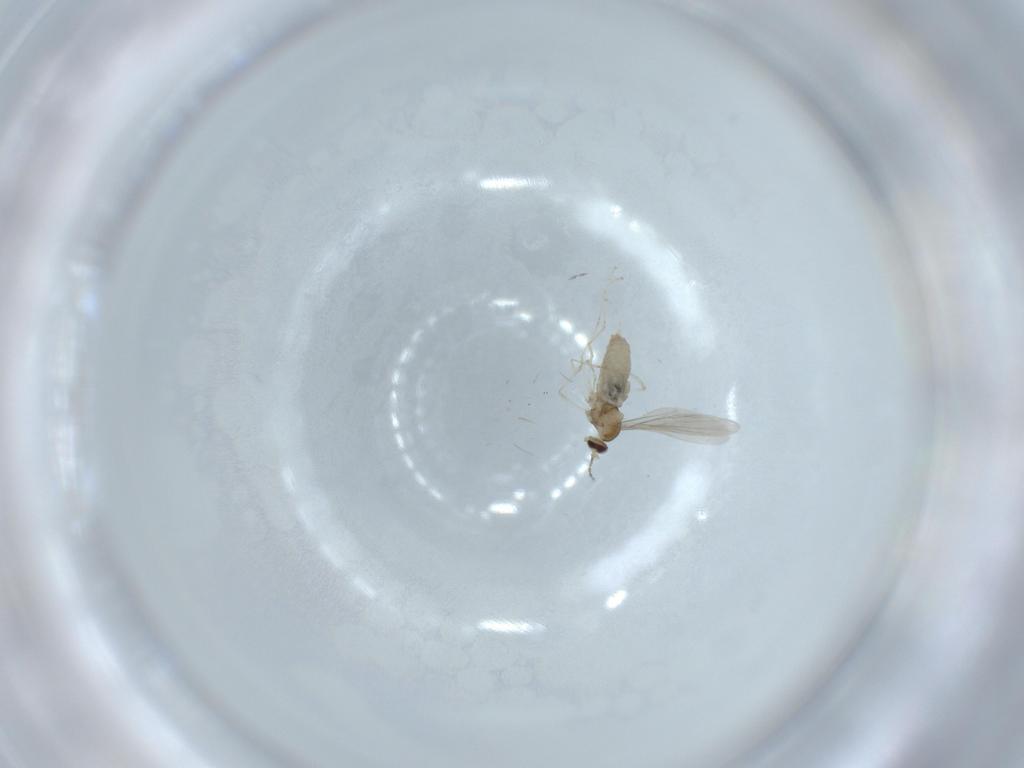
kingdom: Animalia
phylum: Arthropoda
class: Insecta
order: Diptera
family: Cecidomyiidae
